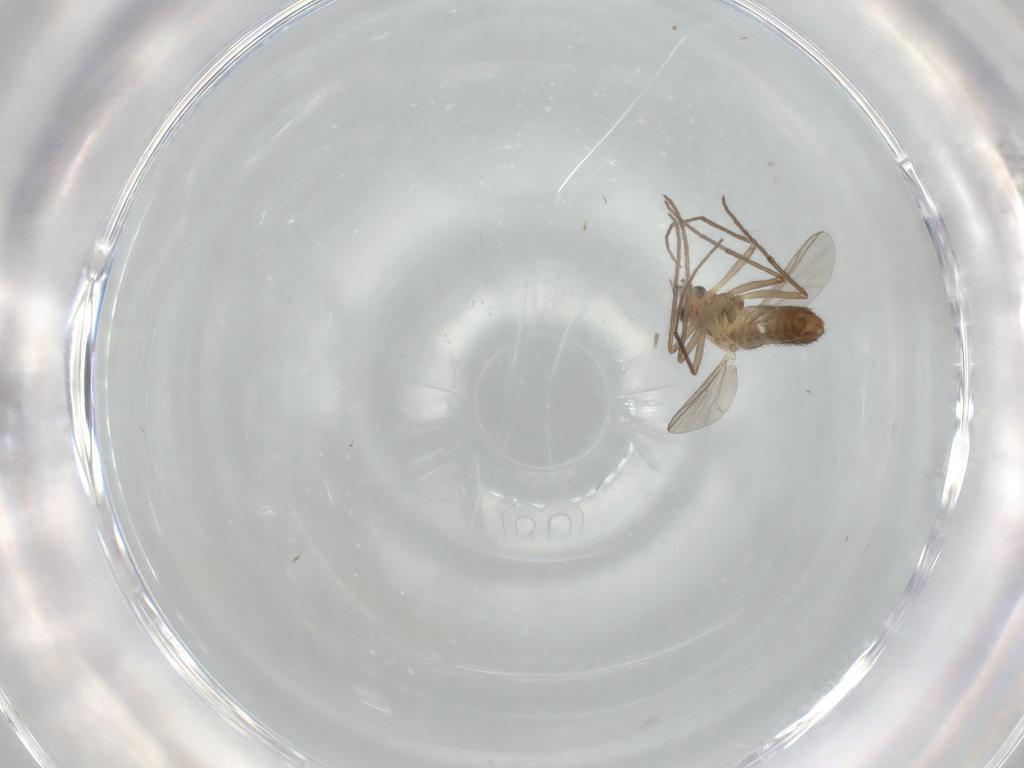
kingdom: Animalia
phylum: Arthropoda
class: Insecta
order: Diptera
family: Chironomidae
